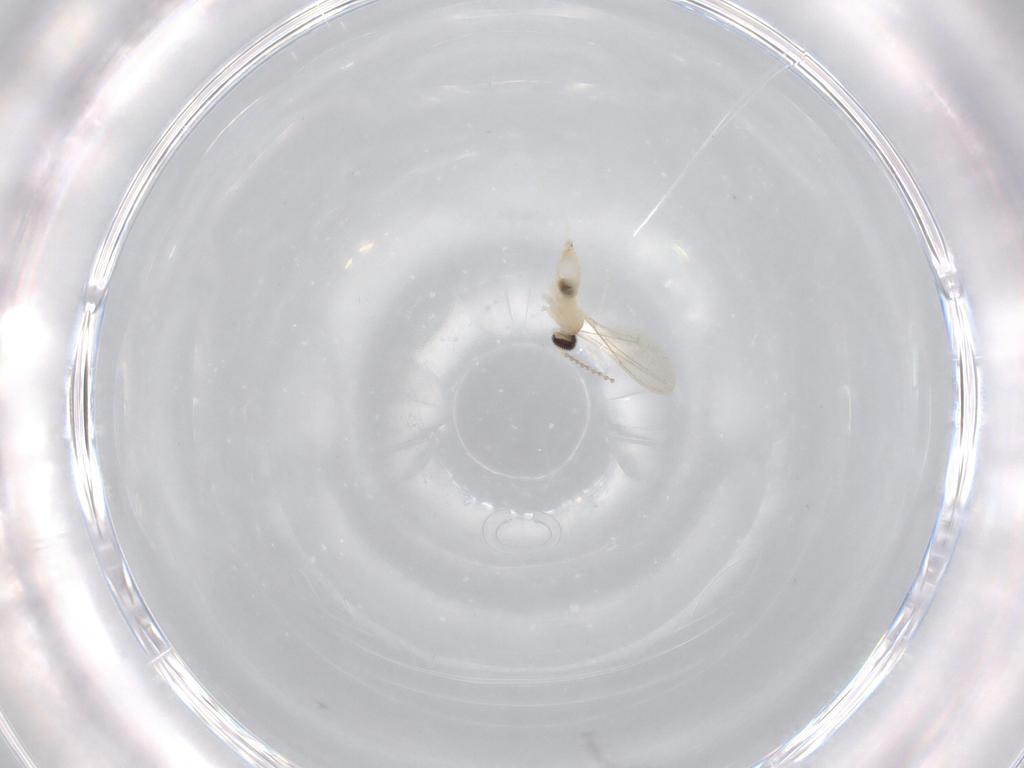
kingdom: Animalia
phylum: Arthropoda
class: Insecta
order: Diptera
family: Cecidomyiidae
